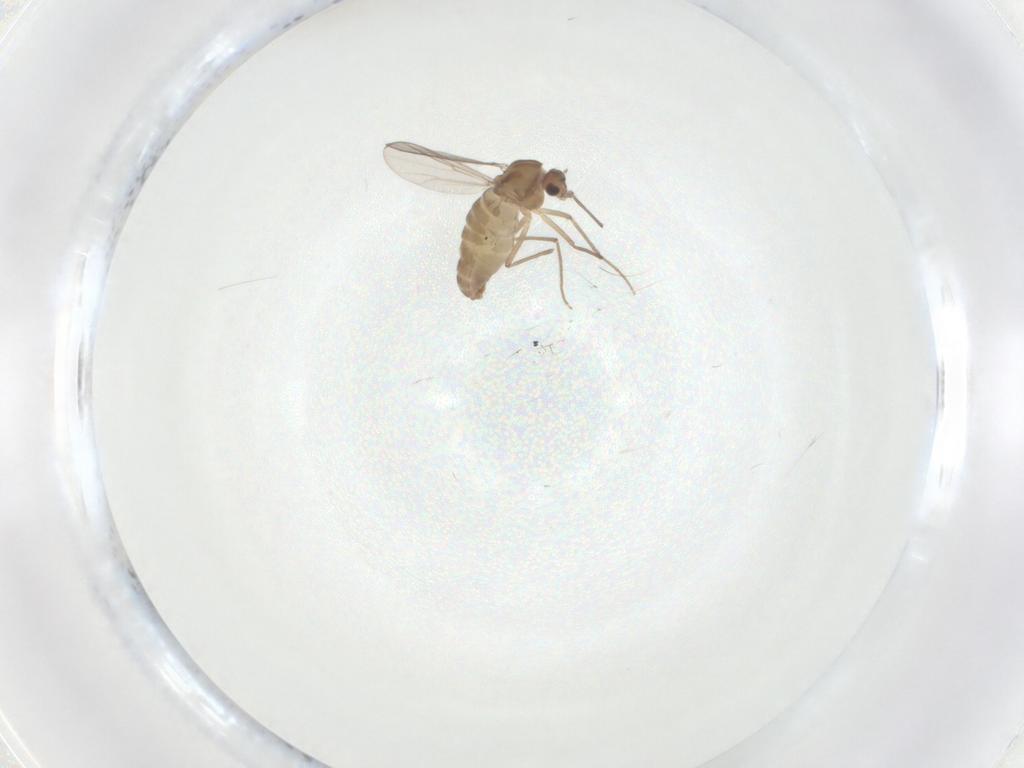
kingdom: Animalia
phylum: Arthropoda
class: Insecta
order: Diptera
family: Chironomidae
